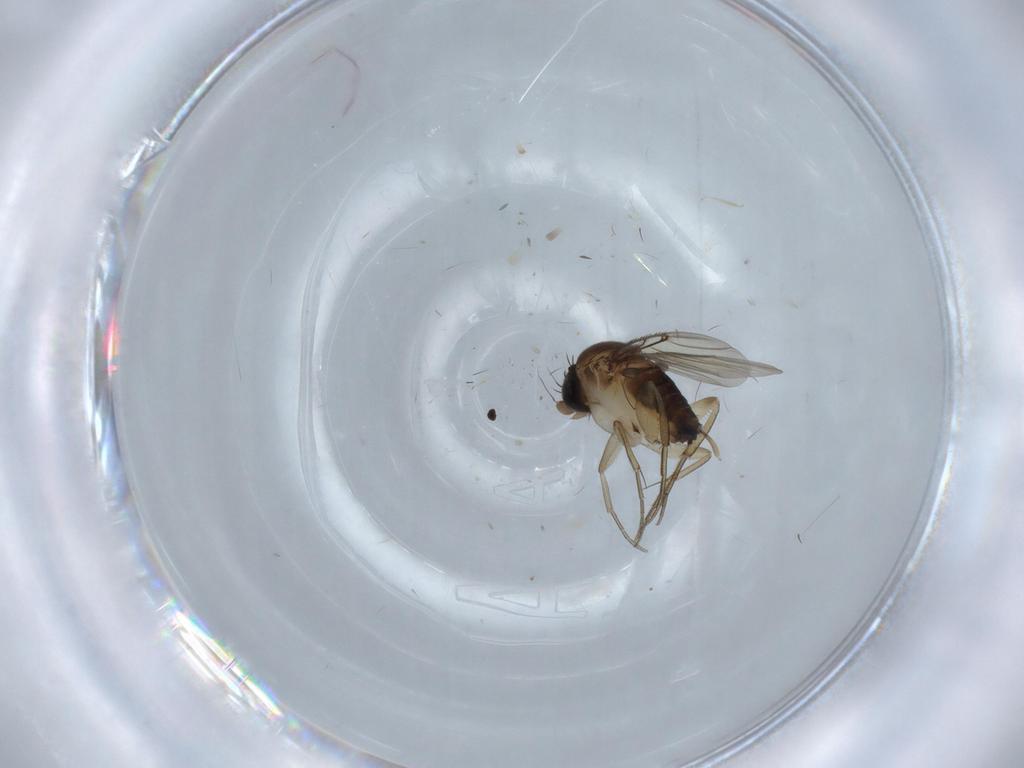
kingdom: Animalia
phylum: Arthropoda
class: Insecta
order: Diptera
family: Phoridae
